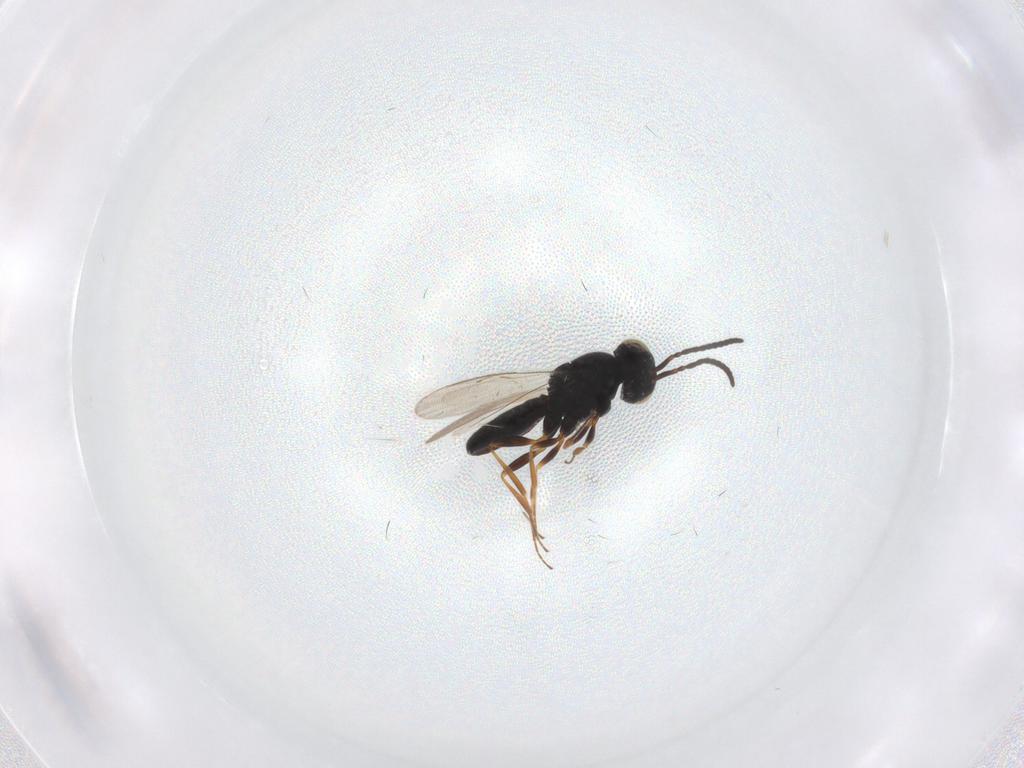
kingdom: Animalia
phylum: Arthropoda
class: Insecta
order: Hymenoptera
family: Scelionidae
